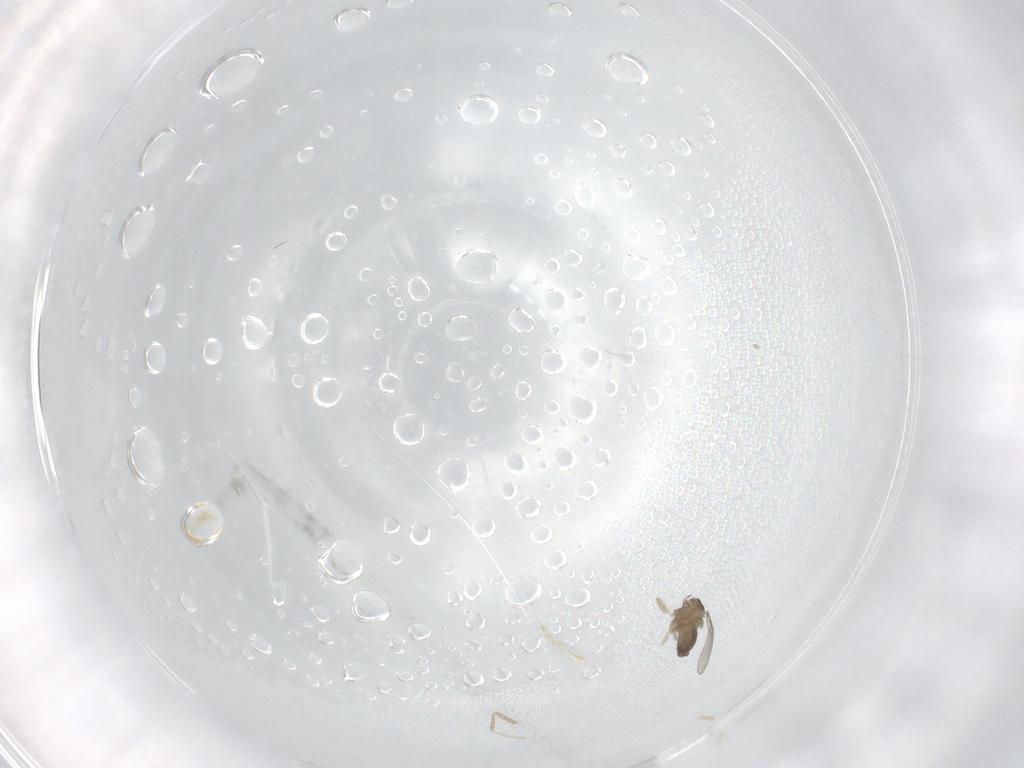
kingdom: Animalia
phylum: Arthropoda
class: Insecta
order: Diptera
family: Cecidomyiidae
